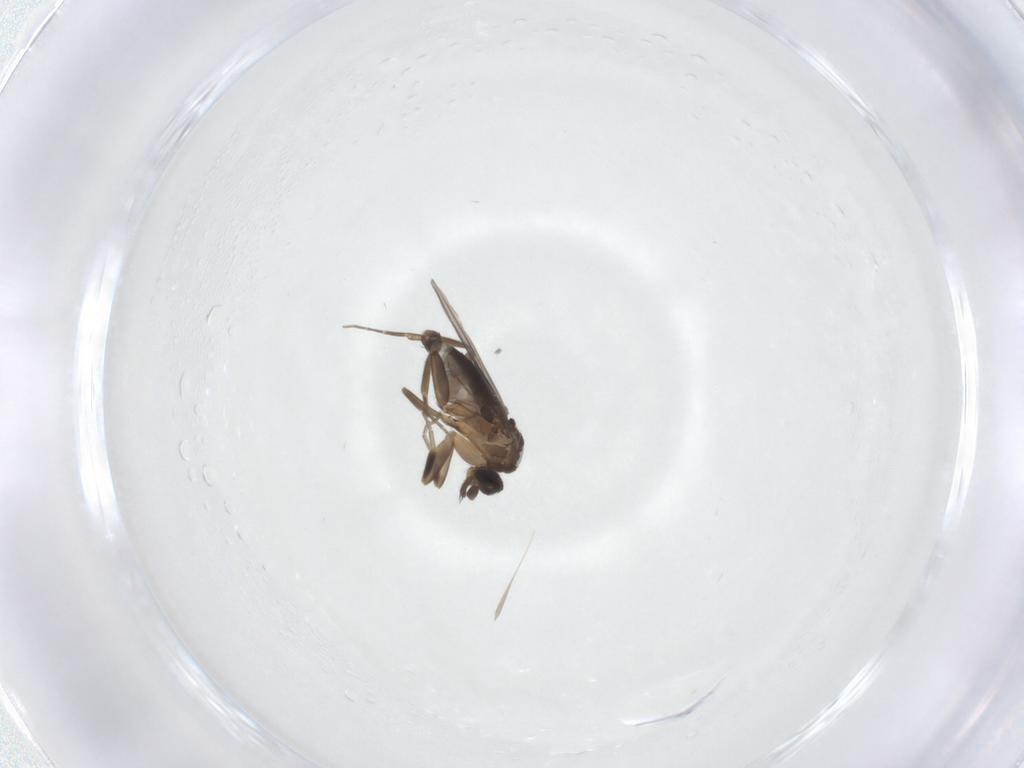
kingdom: Animalia
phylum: Arthropoda
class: Insecta
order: Diptera
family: Phoridae
